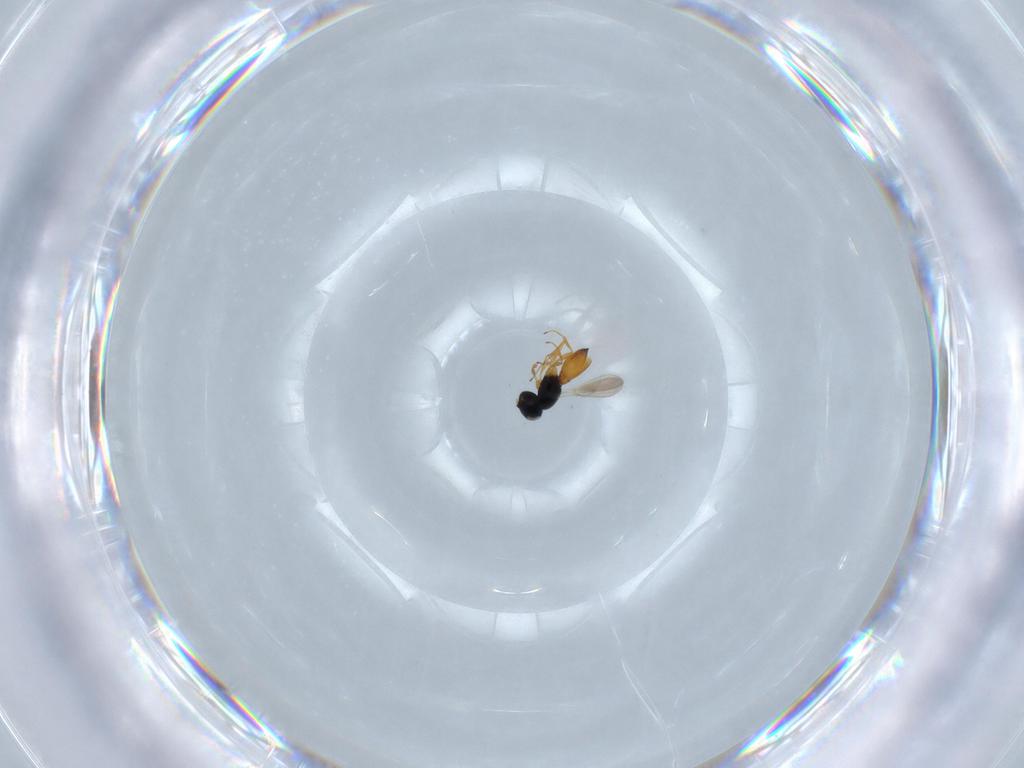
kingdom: Animalia
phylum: Arthropoda
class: Insecta
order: Hymenoptera
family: Scelionidae
